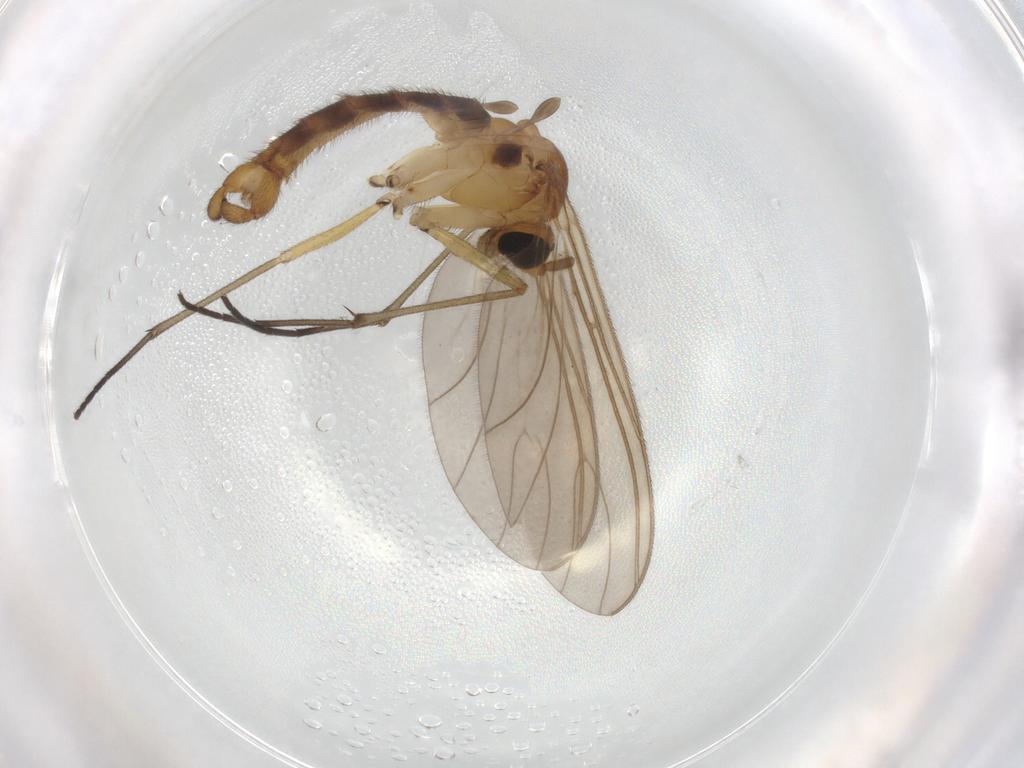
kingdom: Animalia
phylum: Arthropoda
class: Insecta
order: Diptera
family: Sciaridae
